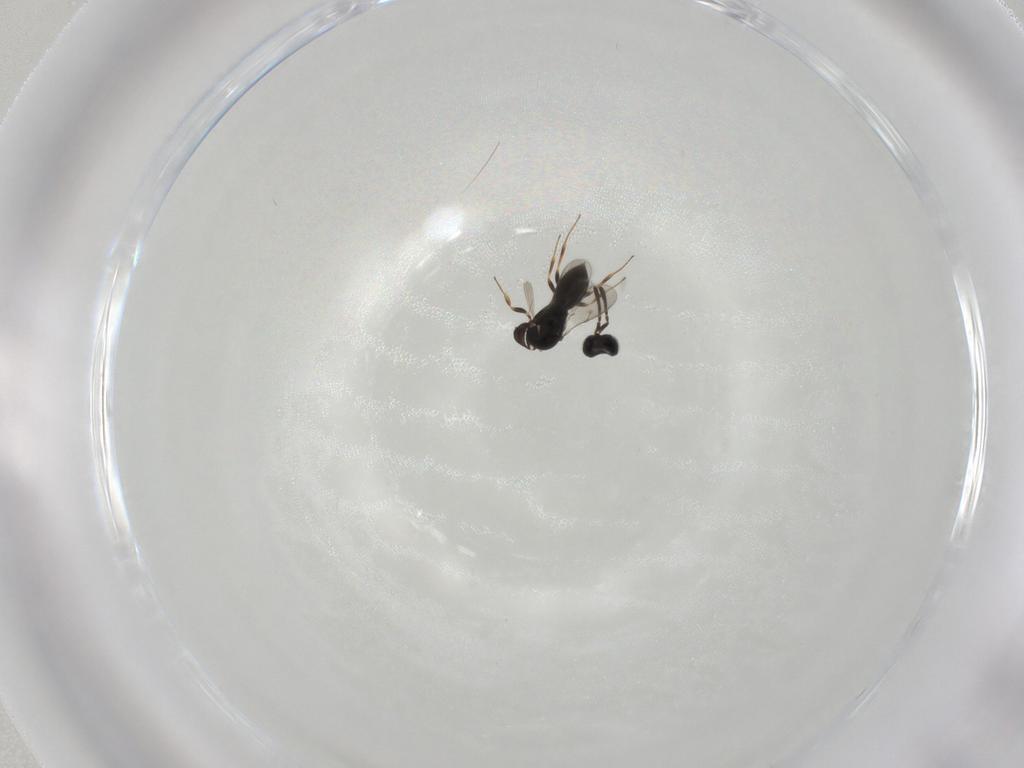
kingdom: Animalia
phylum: Arthropoda
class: Insecta
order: Hymenoptera
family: Scelionidae
